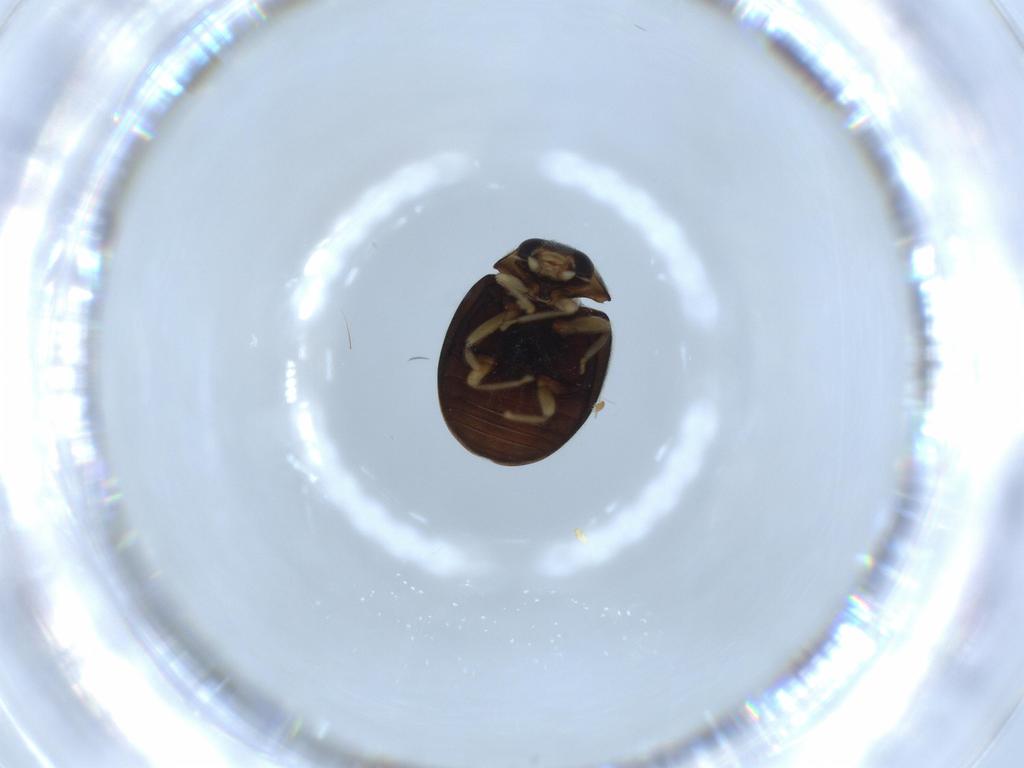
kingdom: Animalia
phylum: Arthropoda
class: Insecta
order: Coleoptera
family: Coccinellidae
